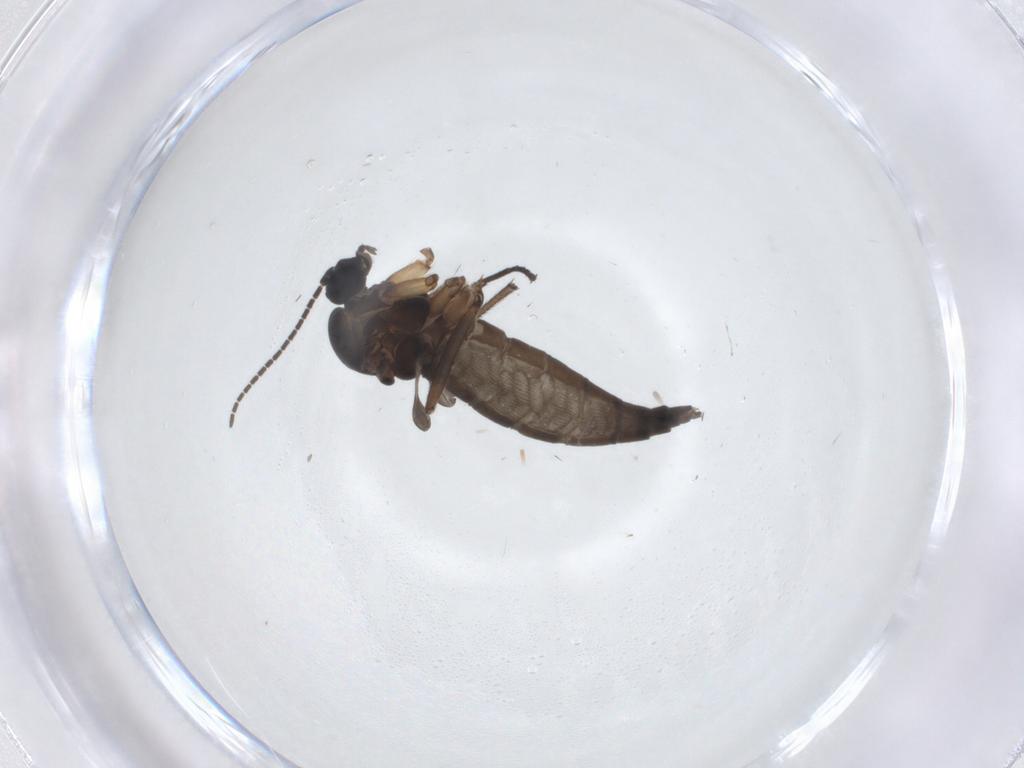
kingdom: Animalia
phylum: Arthropoda
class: Insecta
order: Diptera
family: Sciaridae
